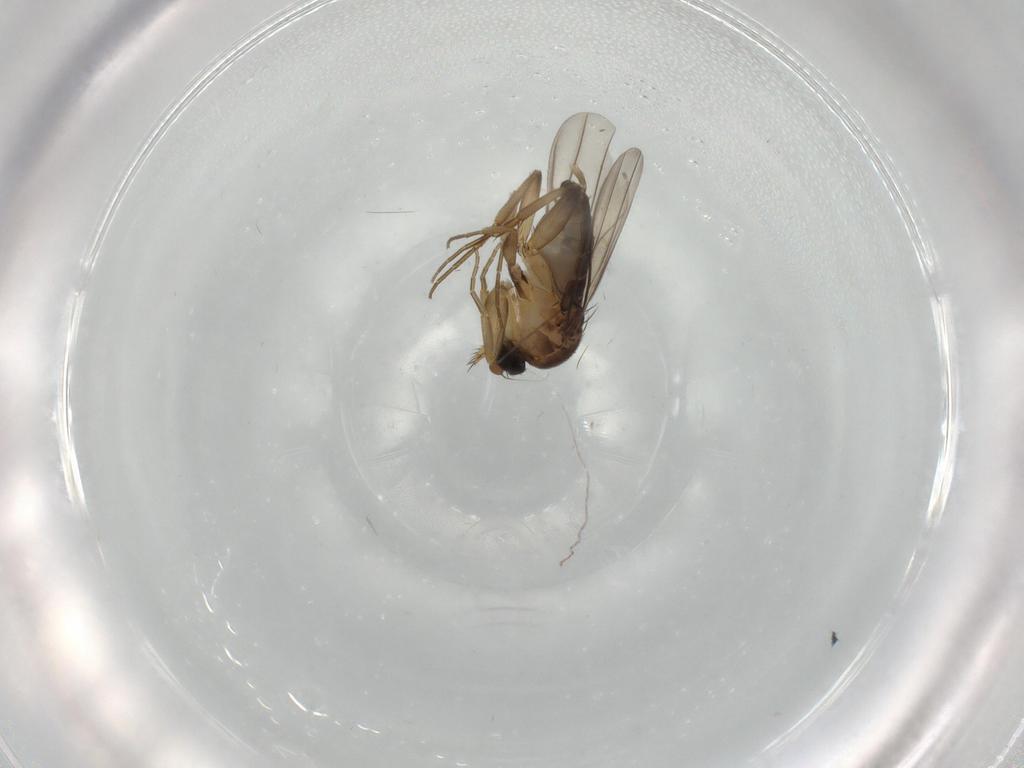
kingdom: Animalia
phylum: Arthropoda
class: Insecta
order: Diptera
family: Phoridae
